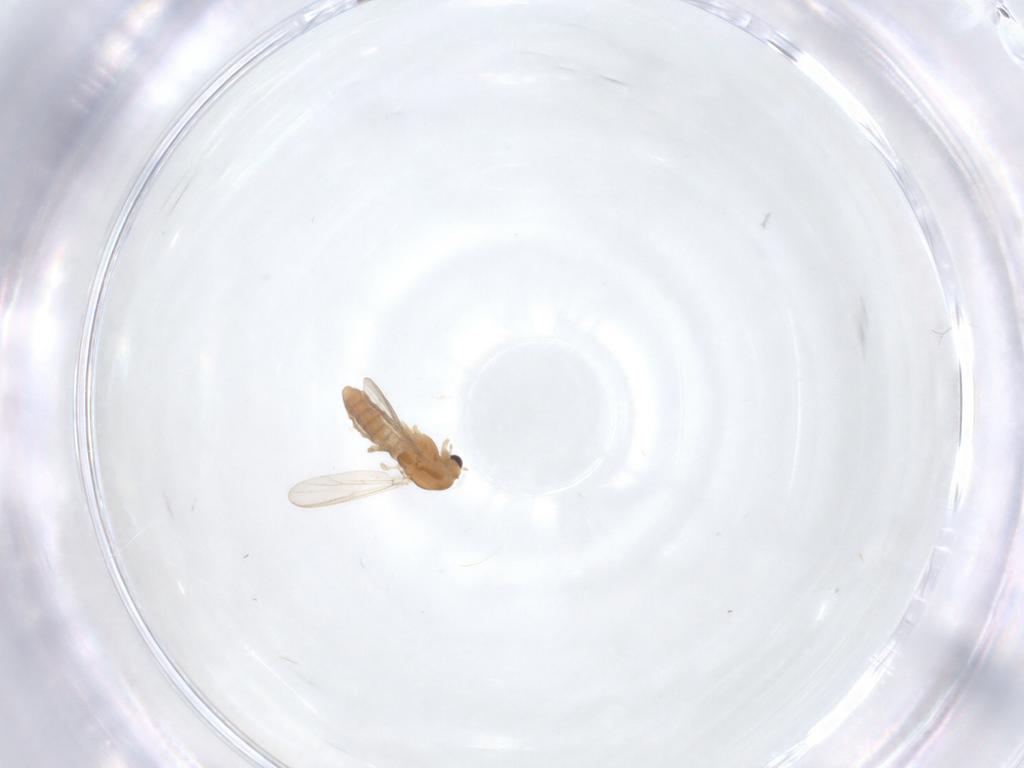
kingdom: Animalia
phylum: Arthropoda
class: Insecta
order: Diptera
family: Chironomidae
